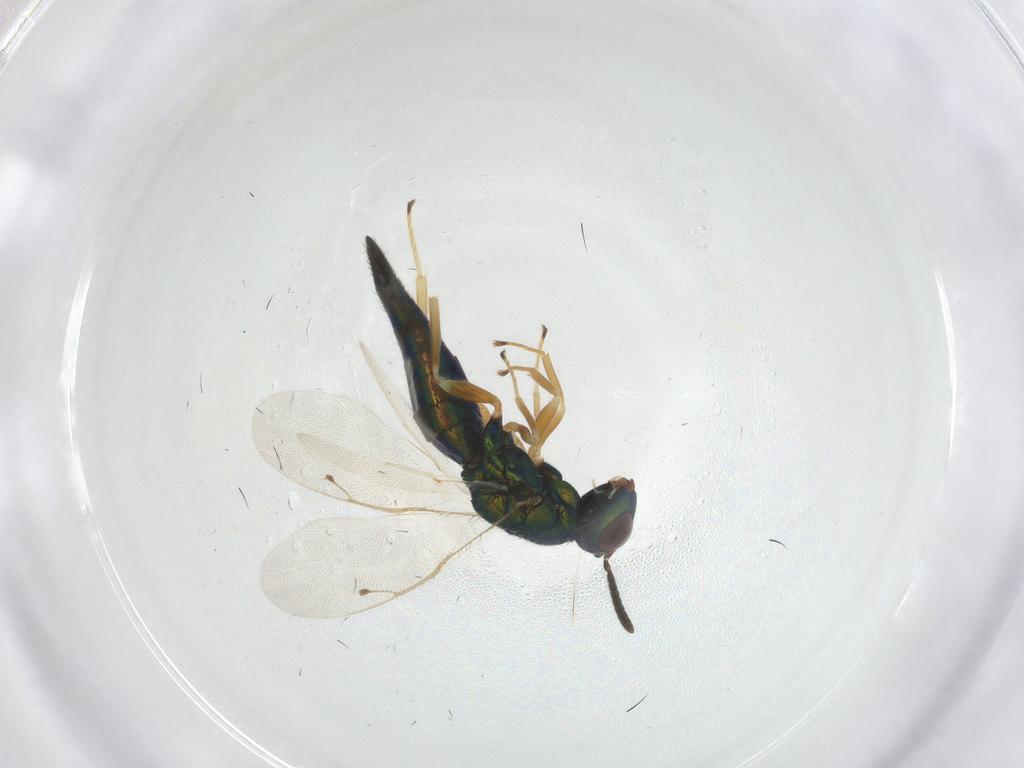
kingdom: Animalia
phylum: Arthropoda
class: Insecta
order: Hymenoptera
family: Pteromalidae
